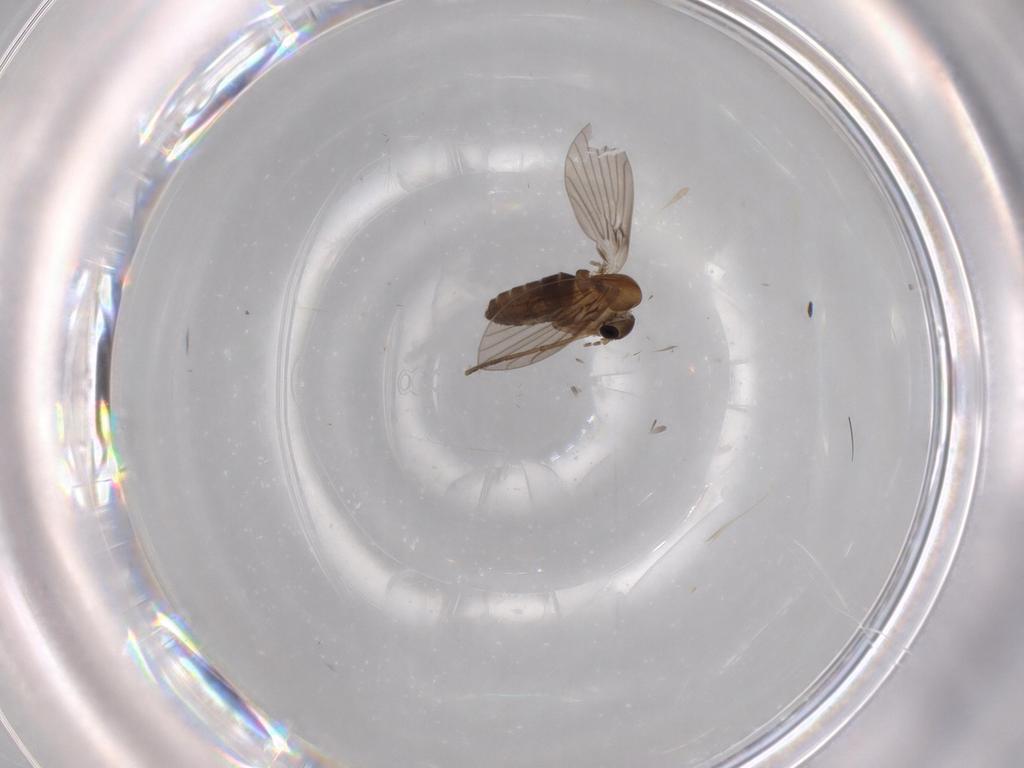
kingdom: Animalia
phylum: Arthropoda
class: Insecta
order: Diptera
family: Psychodidae
